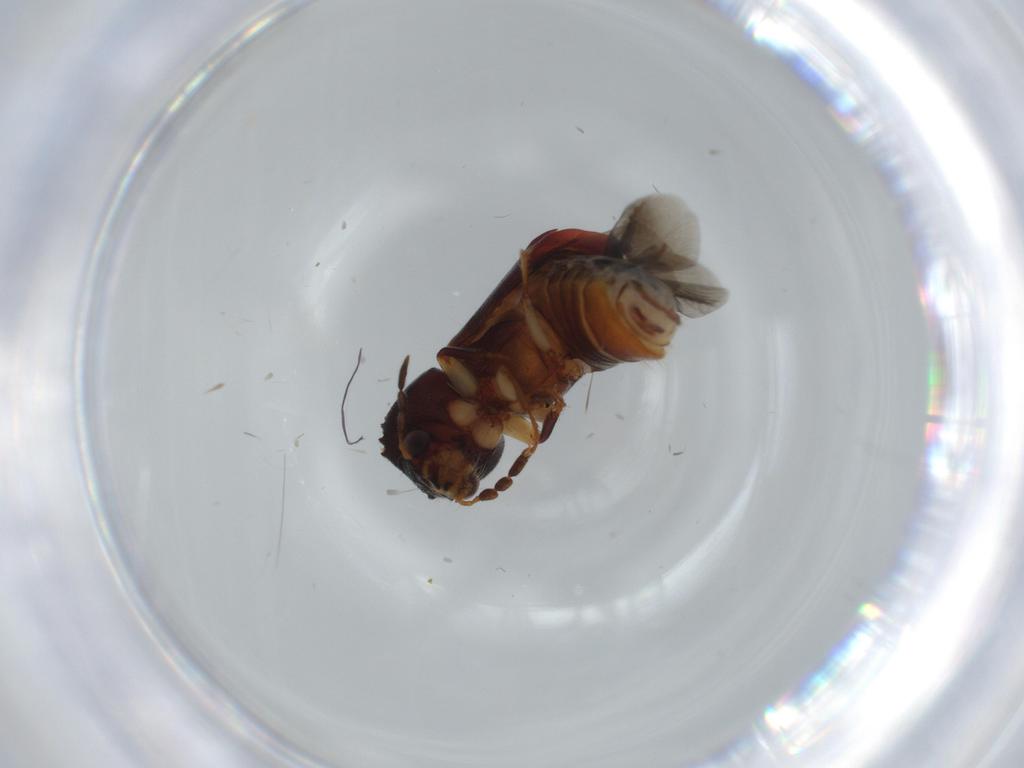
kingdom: Animalia
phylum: Arthropoda
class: Insecta
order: Coleoptera
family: Bostrichidae
